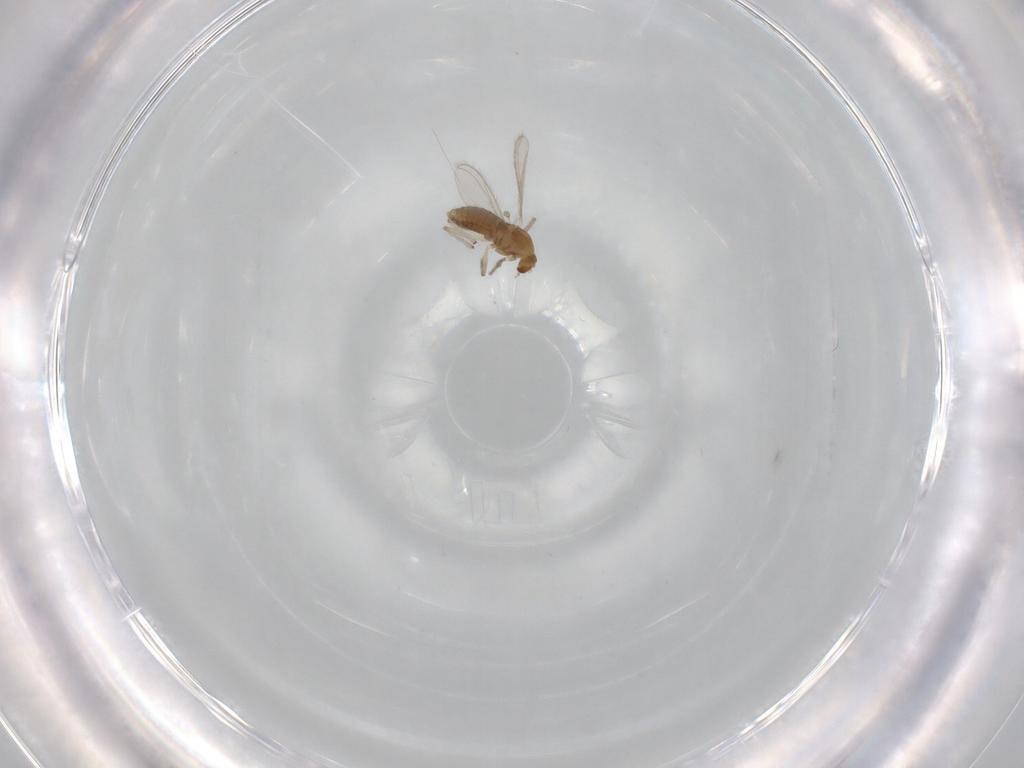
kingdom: Animalia
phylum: Arthropoda
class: Insecta
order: Diptera
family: Chironomidae
